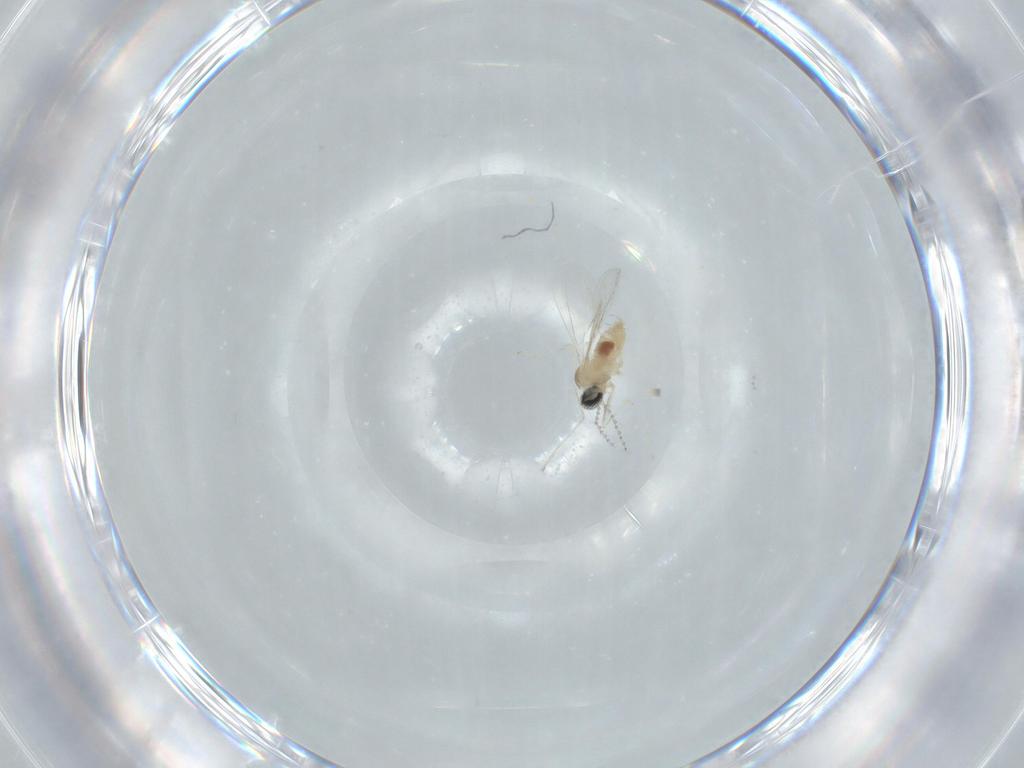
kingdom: Animalia
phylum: Arthropoda
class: Insecta
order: Diptera
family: Cecidomyiidae
